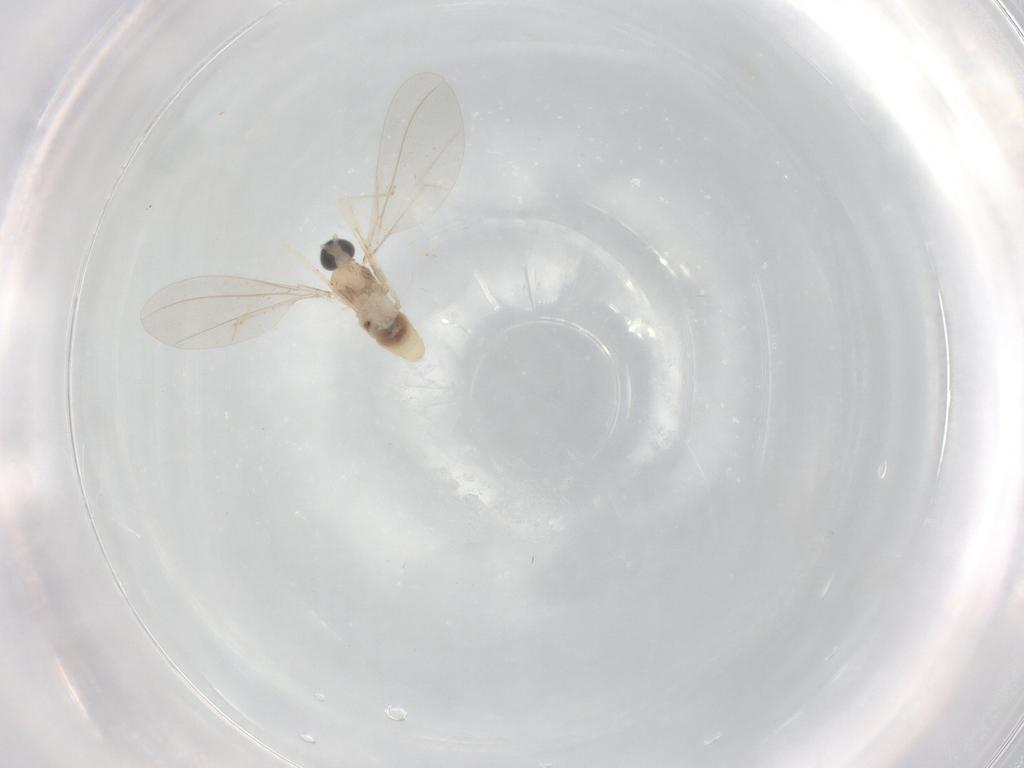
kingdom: Animalia
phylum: Arthropoda
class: Insecta
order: Diptera
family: Cecidomyiidae
